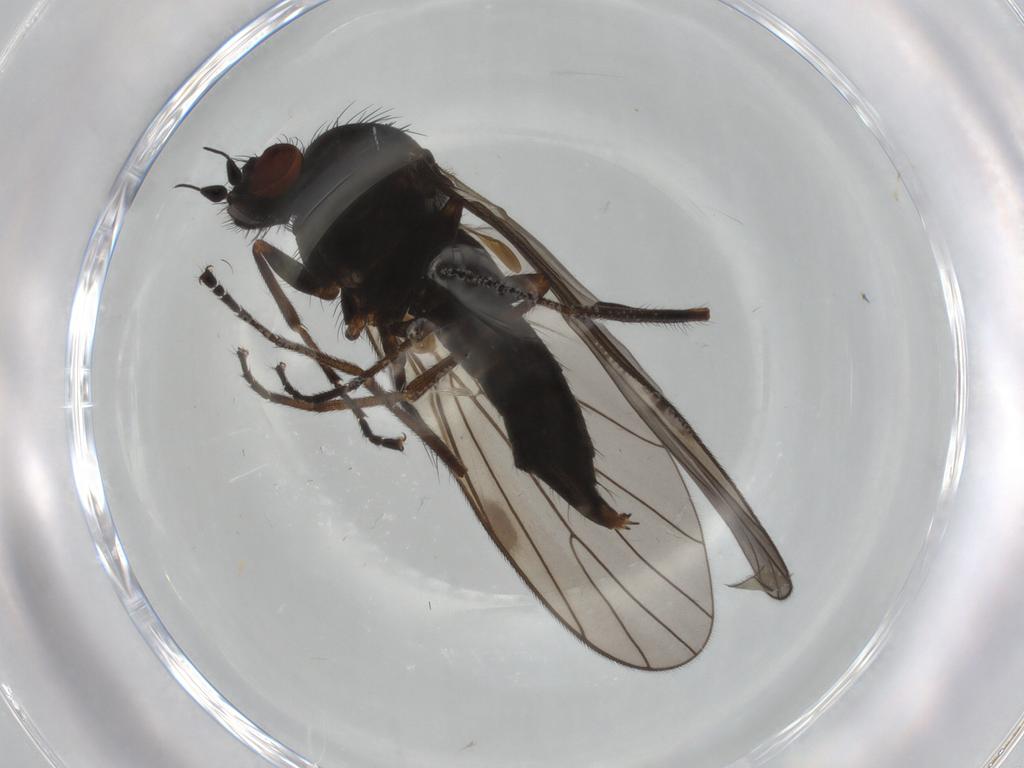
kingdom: Animalia
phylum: Arthropoda
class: Insecta
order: Diptera
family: Brachystomatidae
